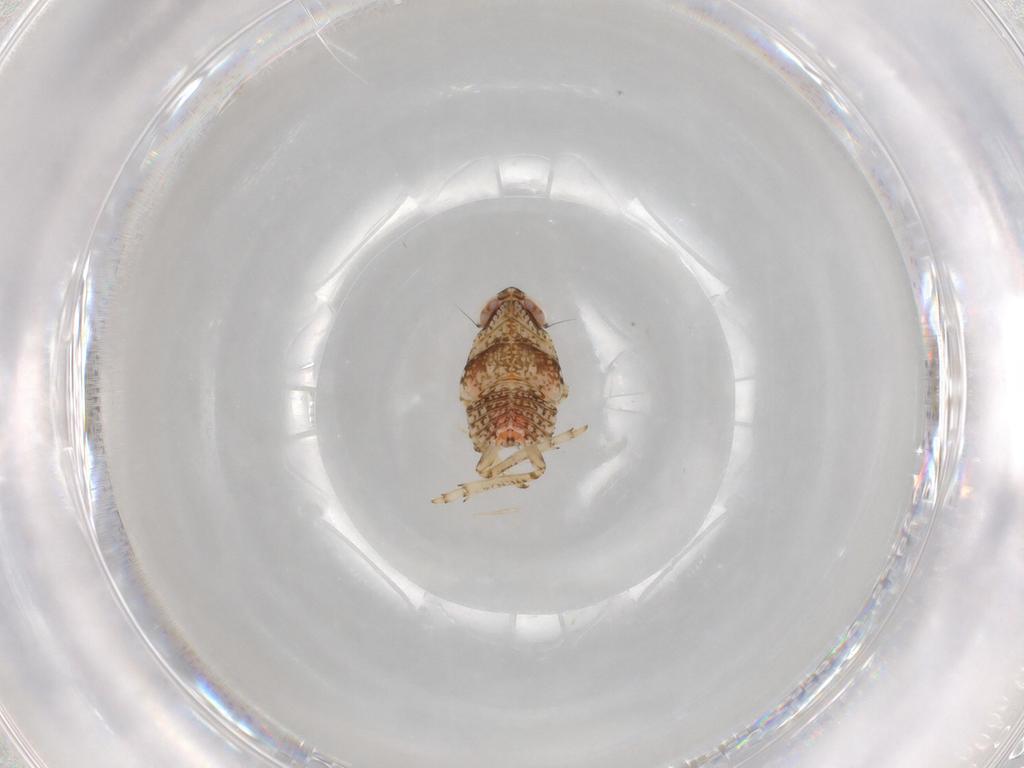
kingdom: Animalia
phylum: Arthropoda
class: Insecta
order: Hemiptera
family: Issidae
